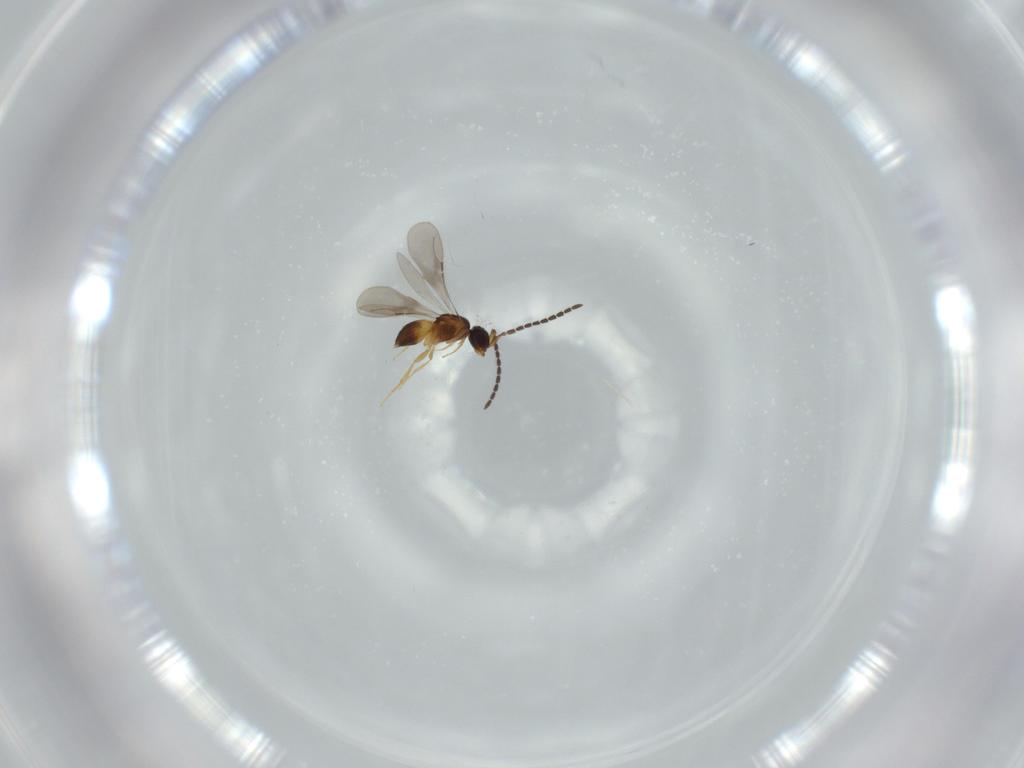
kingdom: Animalia
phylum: Arthropoda
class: Insecta
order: Hymenoptera
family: Ceraphronidae
